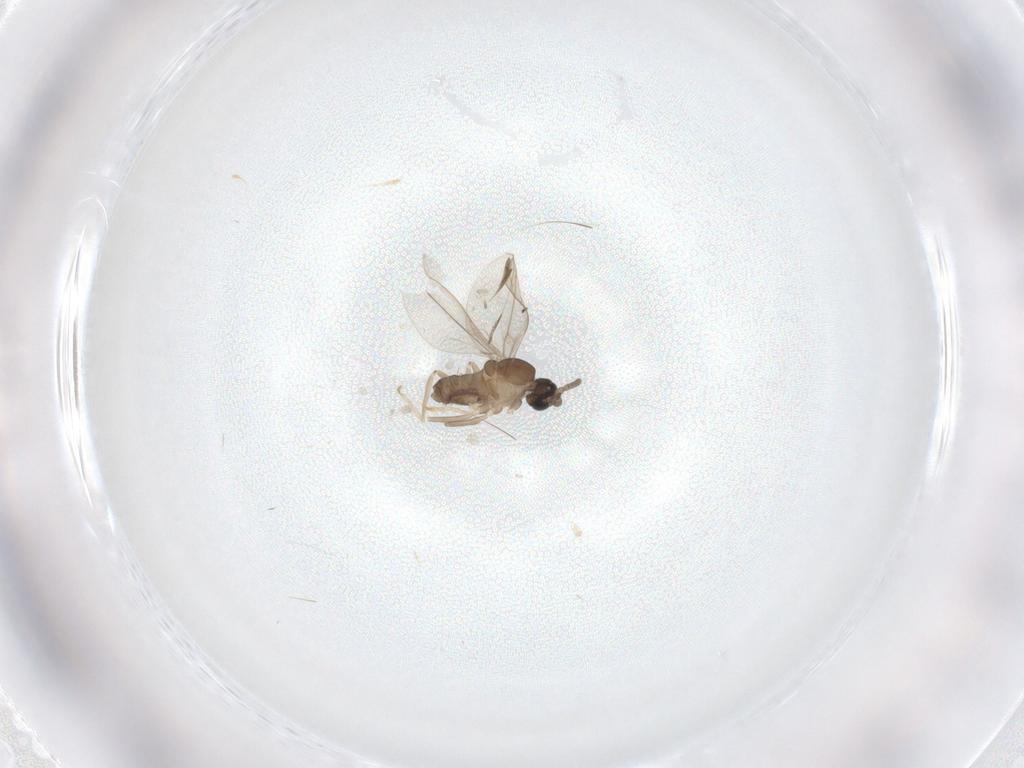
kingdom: Animalia
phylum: Arthropoda
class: Insecta
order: Diptera
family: Cecidomyiidae
